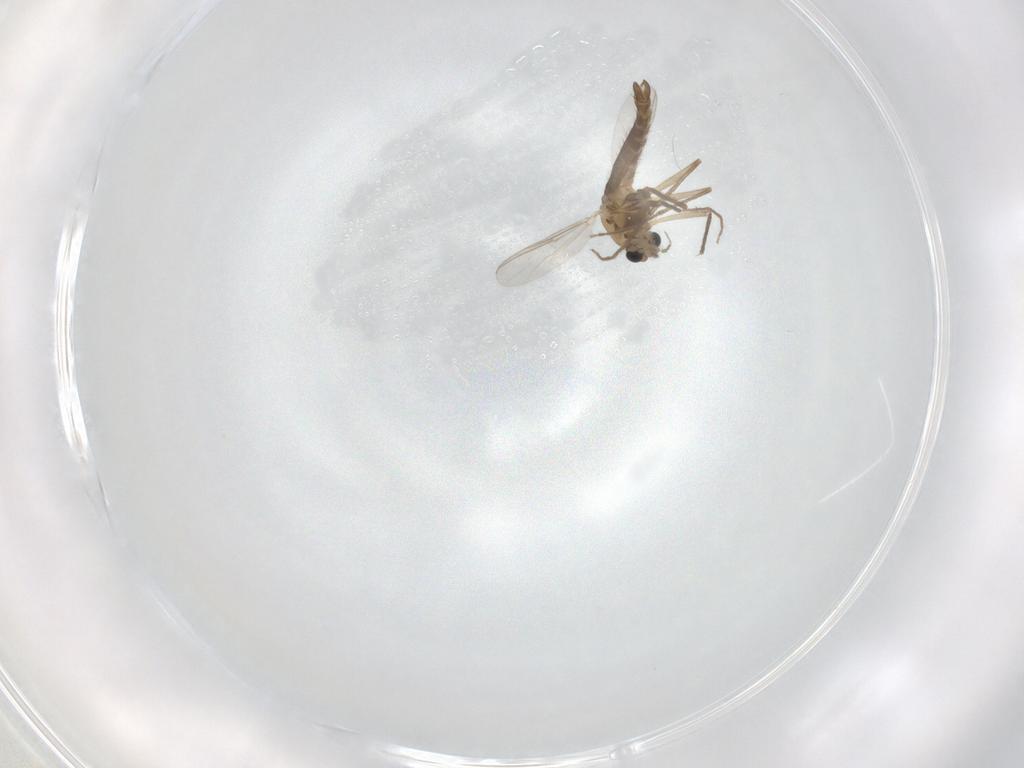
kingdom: Animalia
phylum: Arthropoda
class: Insecta
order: Diptera
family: Chironomidae
